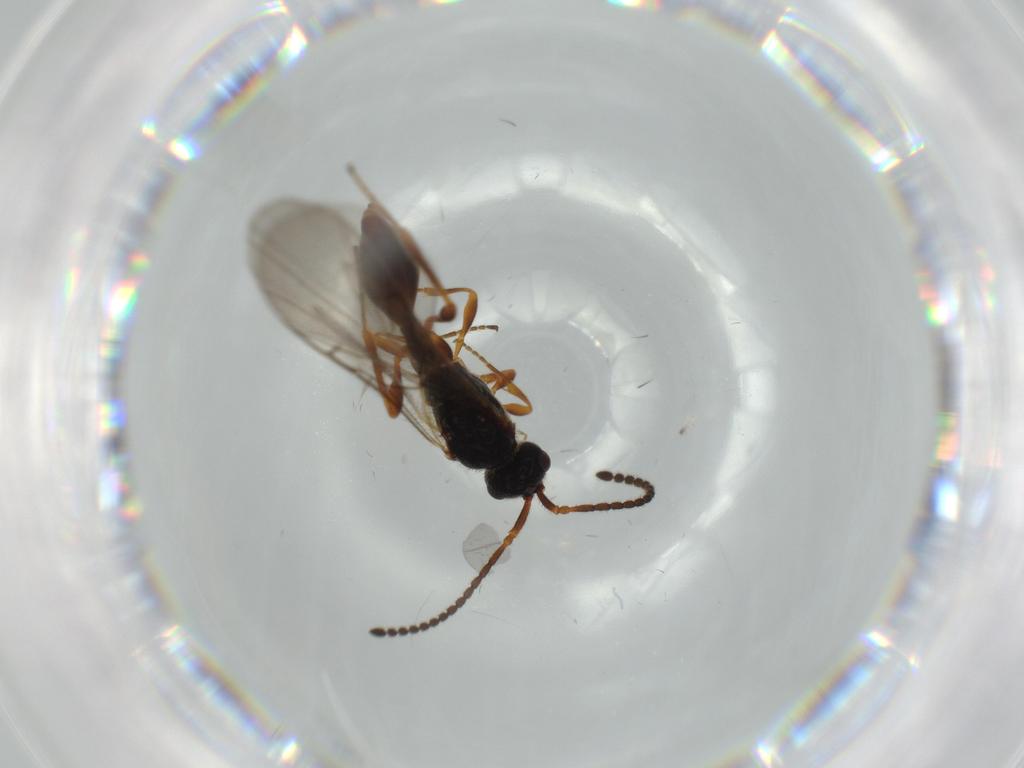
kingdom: Animalia
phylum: Arthropoda
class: Insecta
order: Hymenoptera
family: Diapriidae
